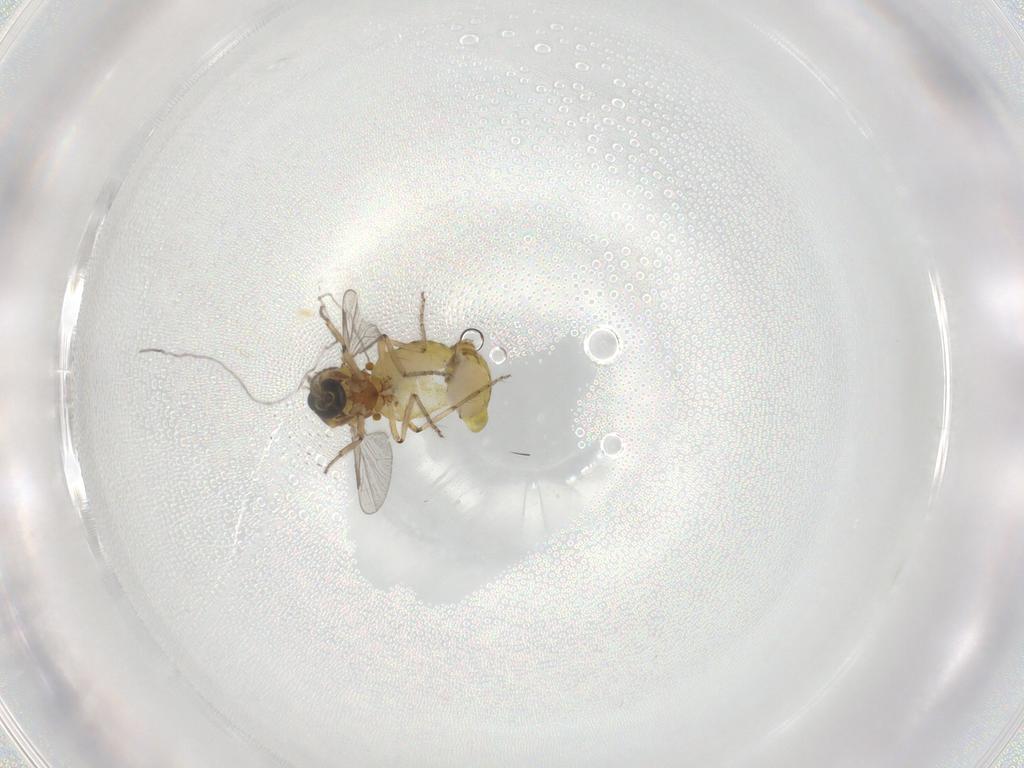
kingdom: Animalia
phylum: Arthropoda
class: Insecta
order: Diptera
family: Ceratopogonidae
